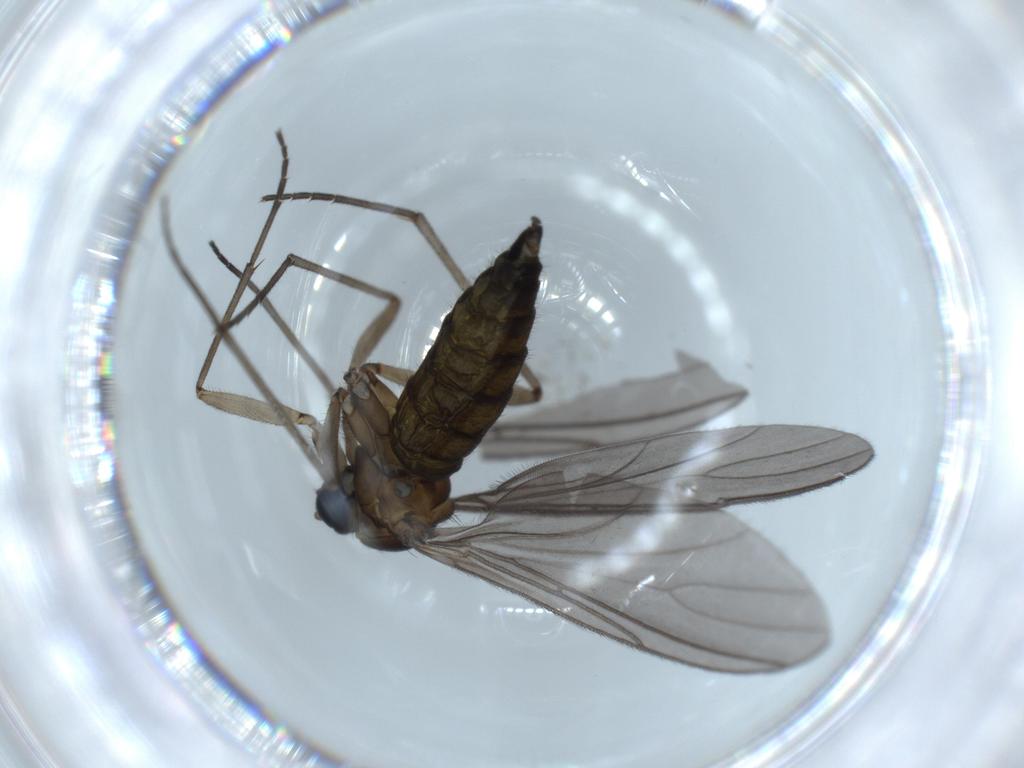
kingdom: Animalia
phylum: Arthropoda
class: Insecta
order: Diptera
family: Sciaridae
